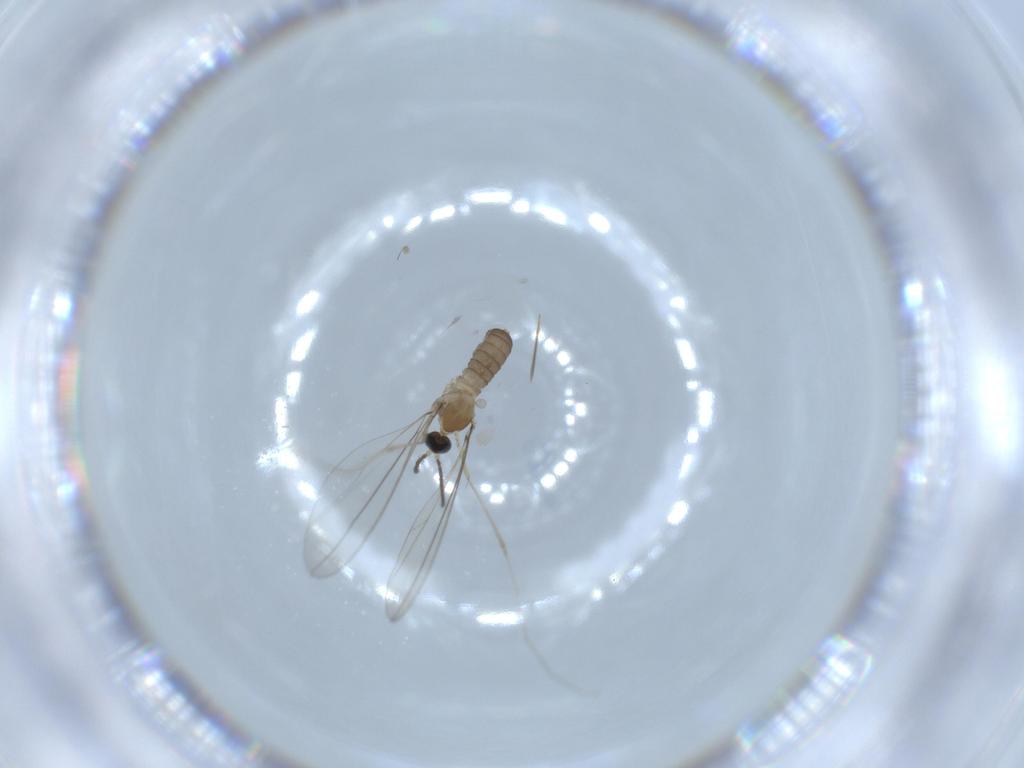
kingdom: Animalia
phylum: Arthropoda
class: Insecta
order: Diptera
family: Cecidomyiidae
